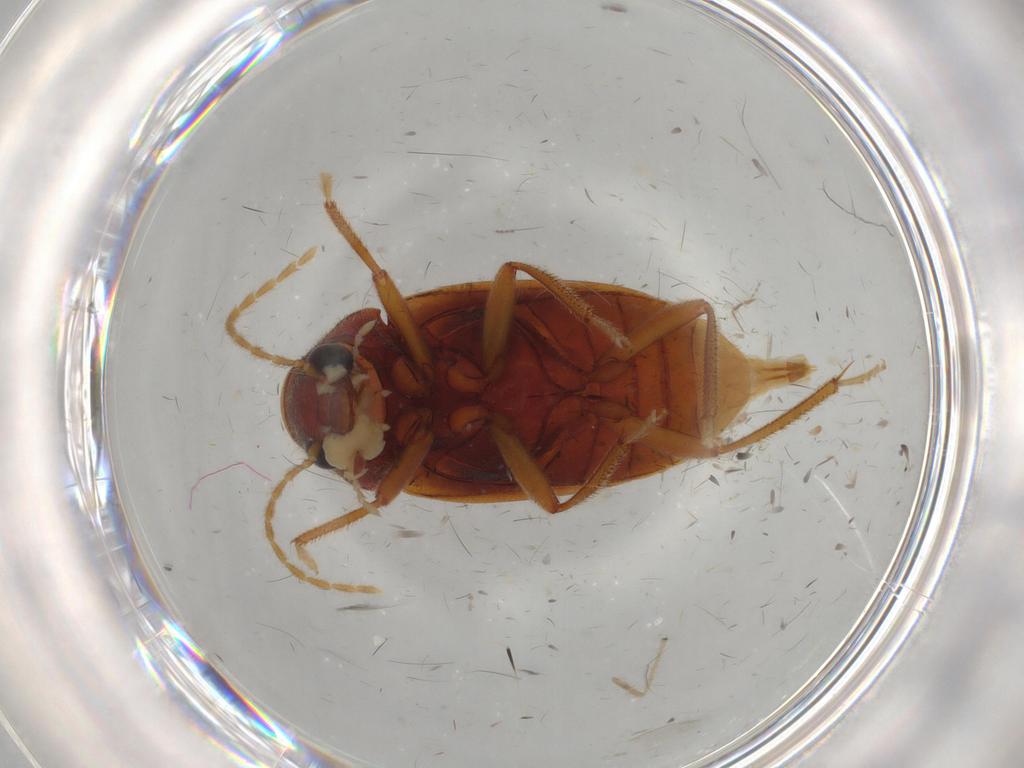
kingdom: Animalia
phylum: Arthropoda
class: Insecta
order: Coleoptera
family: Ptilodactylidae
